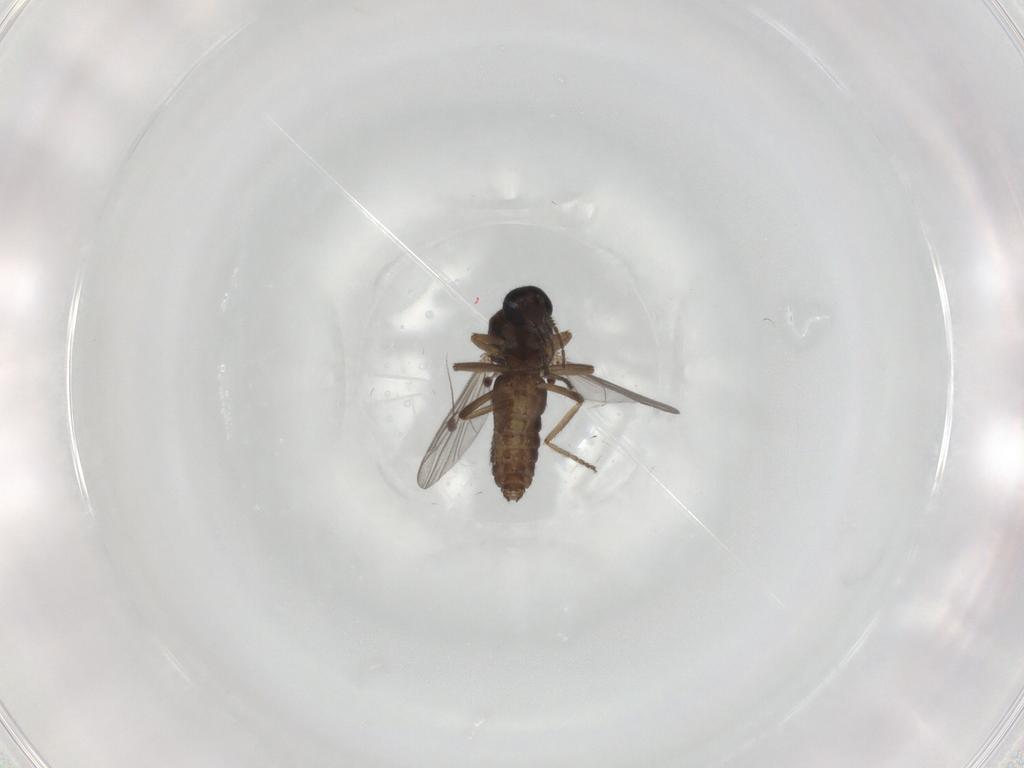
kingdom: Animalia
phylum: Arthropoda
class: Insecta
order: Diptera
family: Ceratopogonidae
